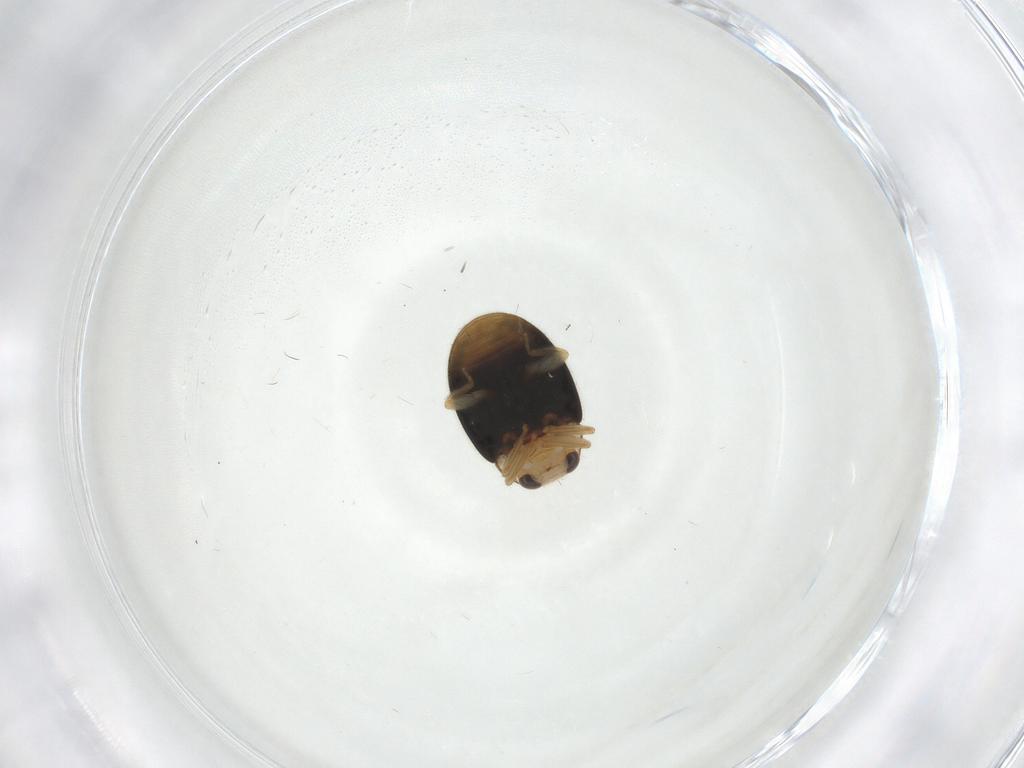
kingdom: Animalia
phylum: Arthropoda
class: Insecta
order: Coleoptera
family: Coccinellidae
